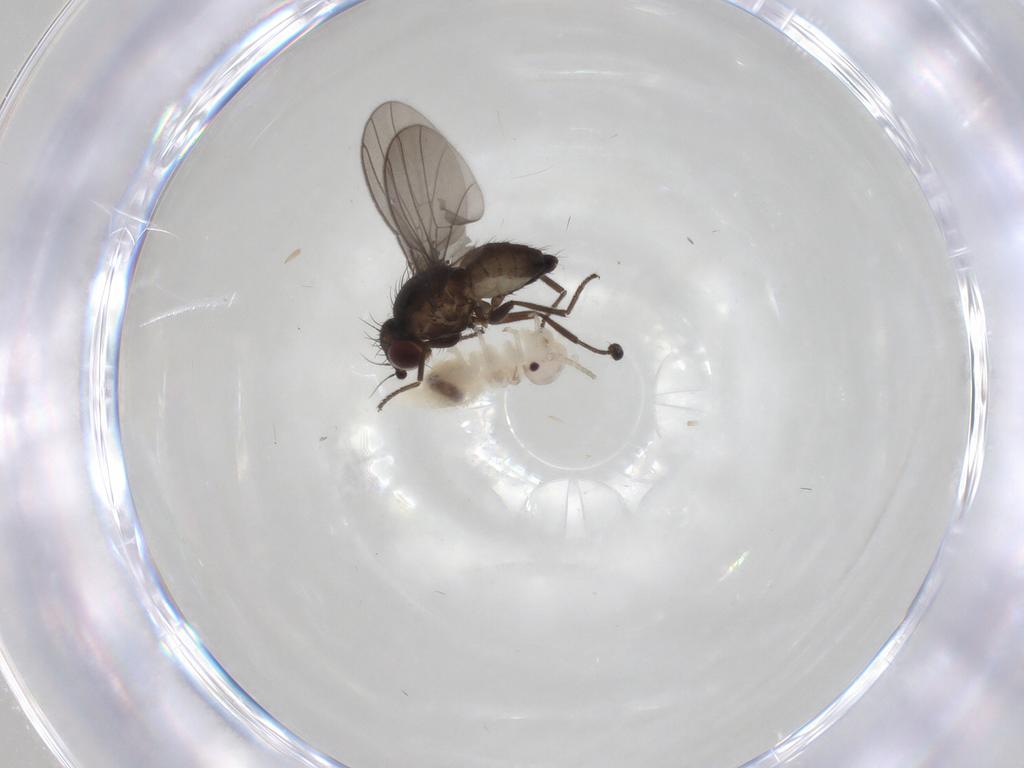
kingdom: Animalia
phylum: Arthropoda
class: Insecta
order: Psocodea
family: Amphipsocidae
